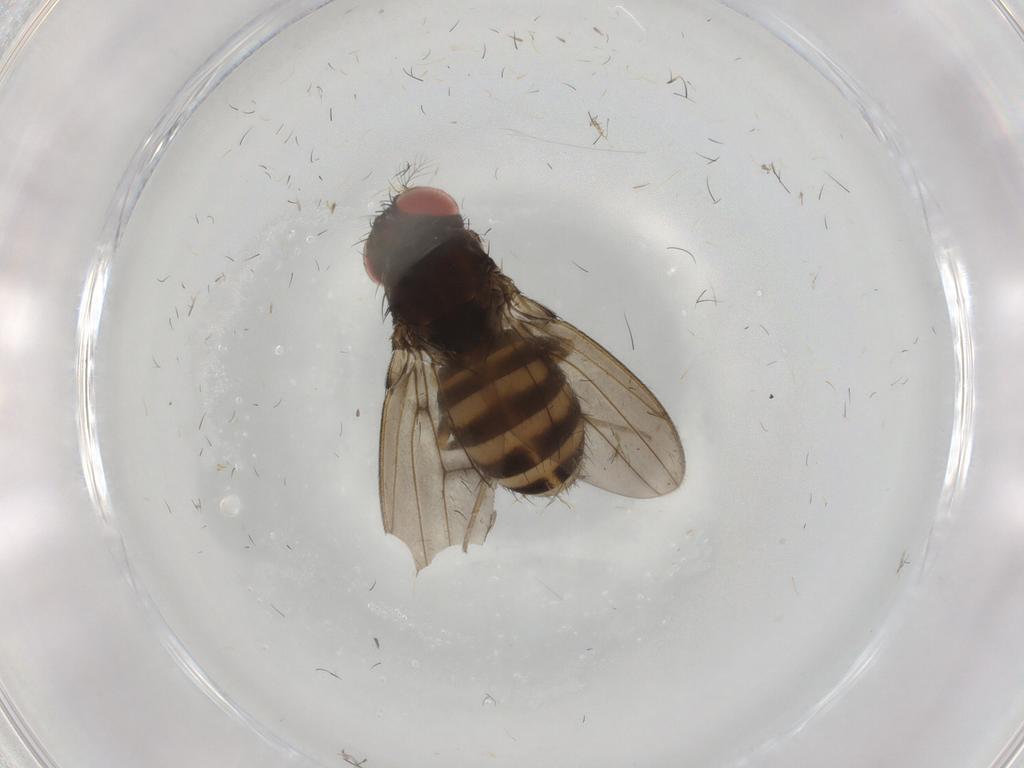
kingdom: Animalia
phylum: Arthropoda
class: Insecta
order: Diptera
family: Drosophilidae
